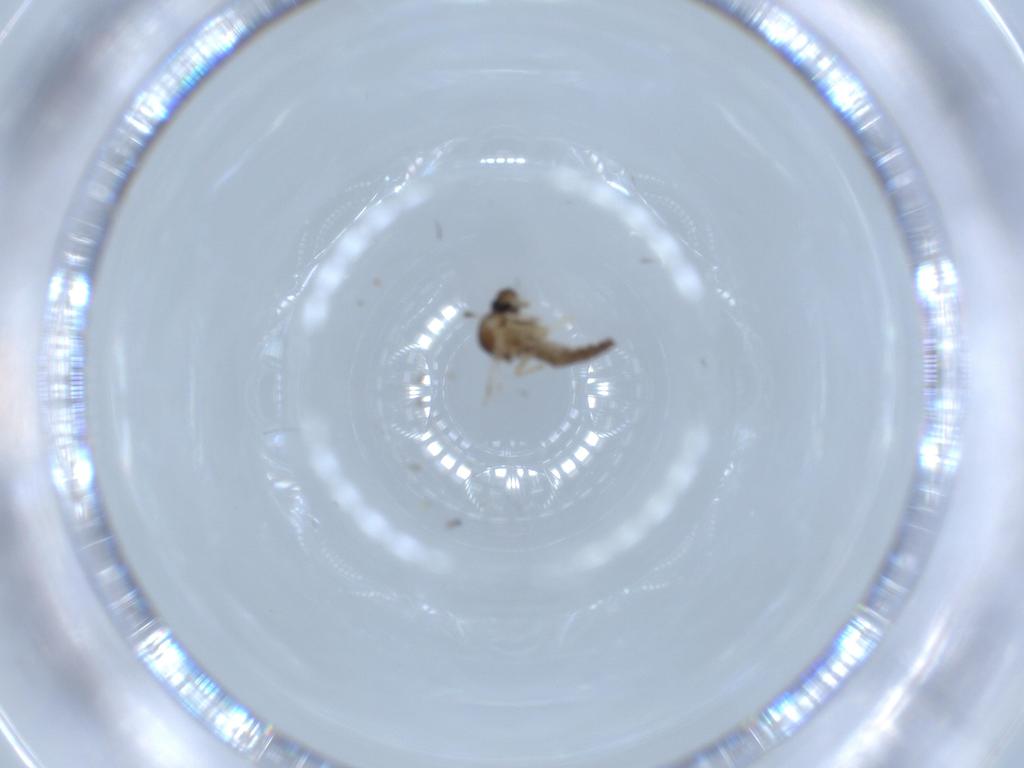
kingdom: Animalia
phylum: Arthropoda
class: Insecta
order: Diptera
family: Ceratopogonidae
